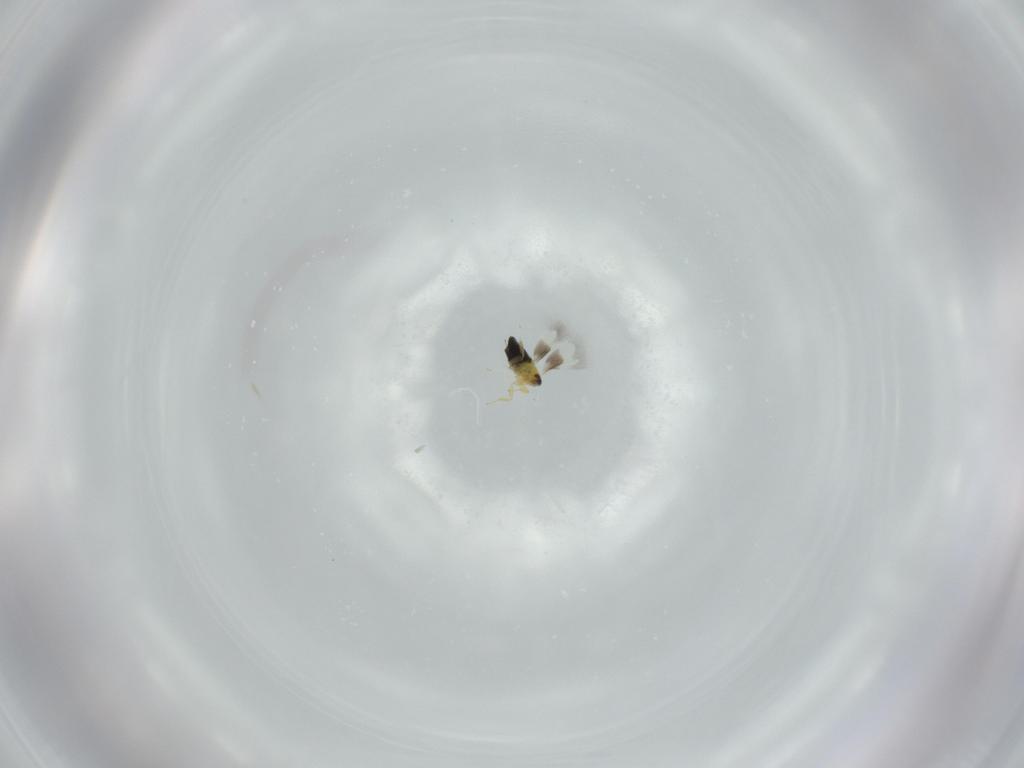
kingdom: Animalia
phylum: Arthropoda
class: Insecta
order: Hymenoptera
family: Signiphoridae
